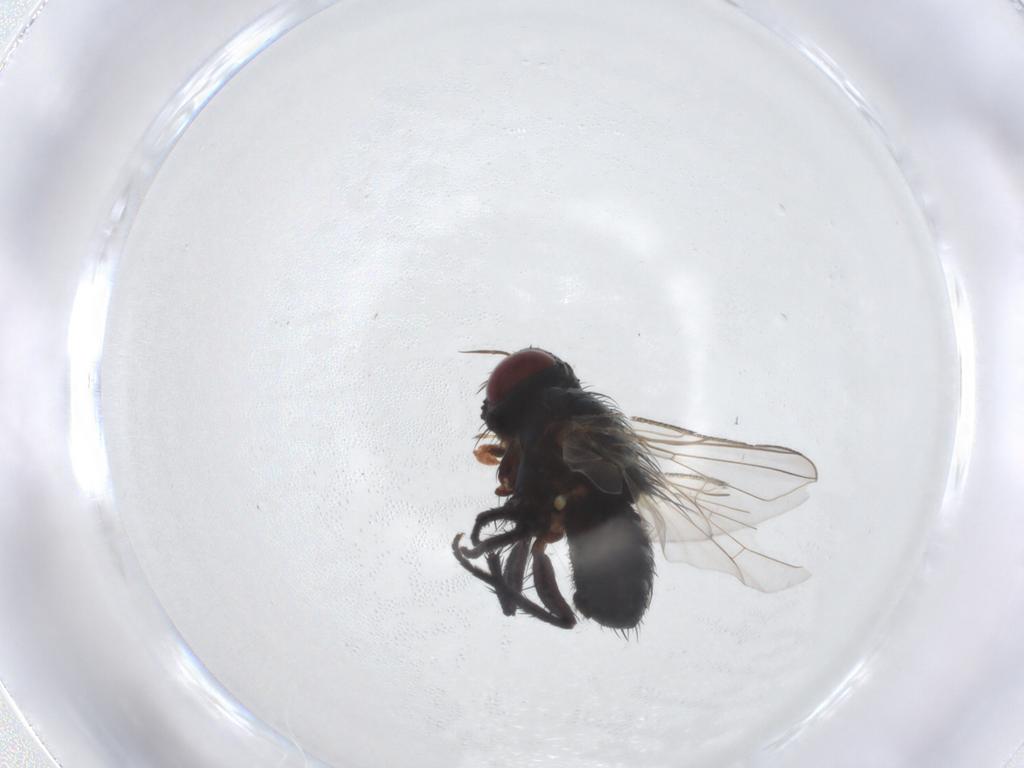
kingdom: Animalia
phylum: Arthropoda
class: Insecta
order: Diptera
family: Tachinidae
